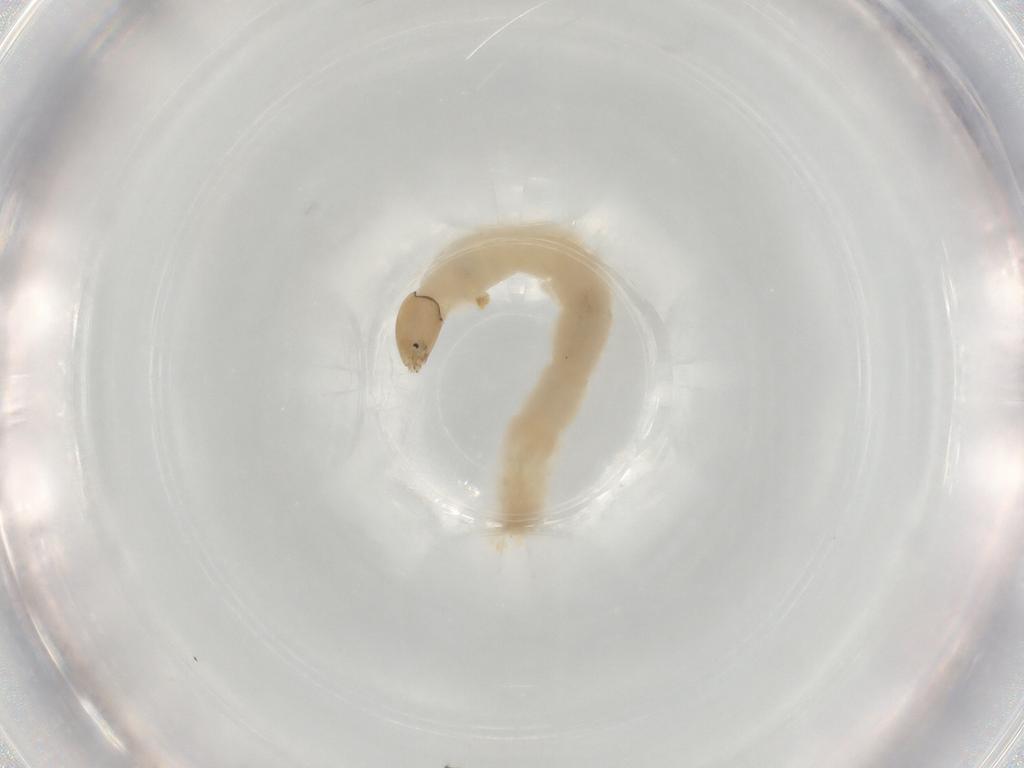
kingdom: Animalia
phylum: Arthropoda
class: Insecta
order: Diptera
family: Chironomidae
